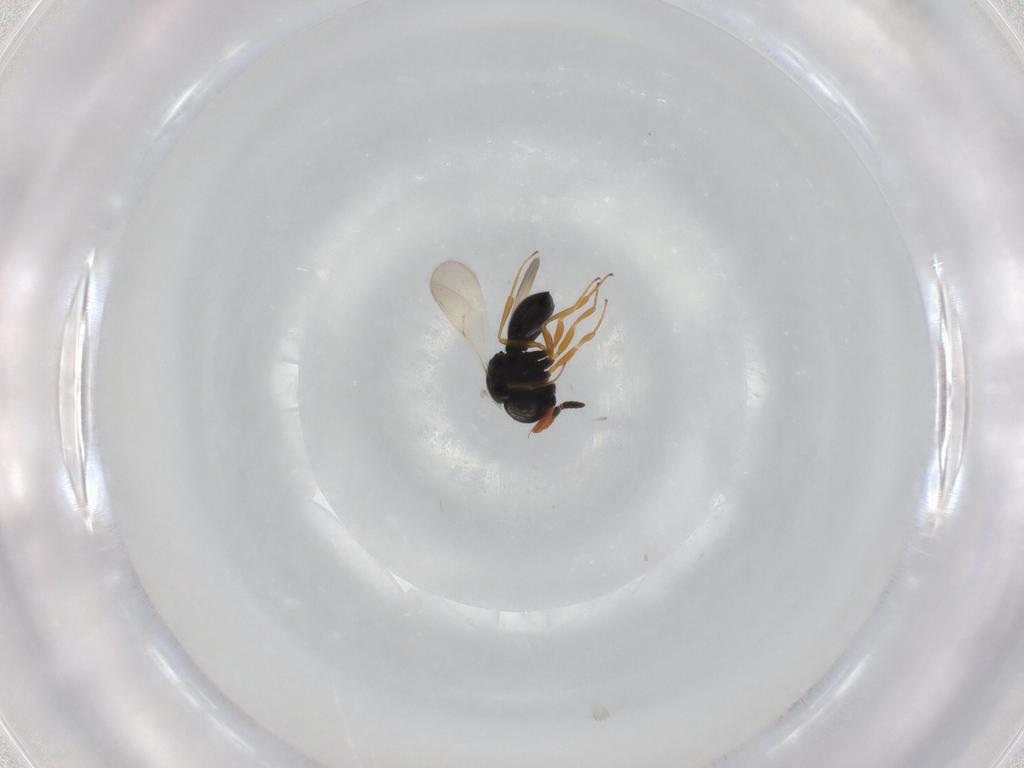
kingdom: Animalia
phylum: Arthropoda
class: Insecta
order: Hymenoptera
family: Scelionidae
